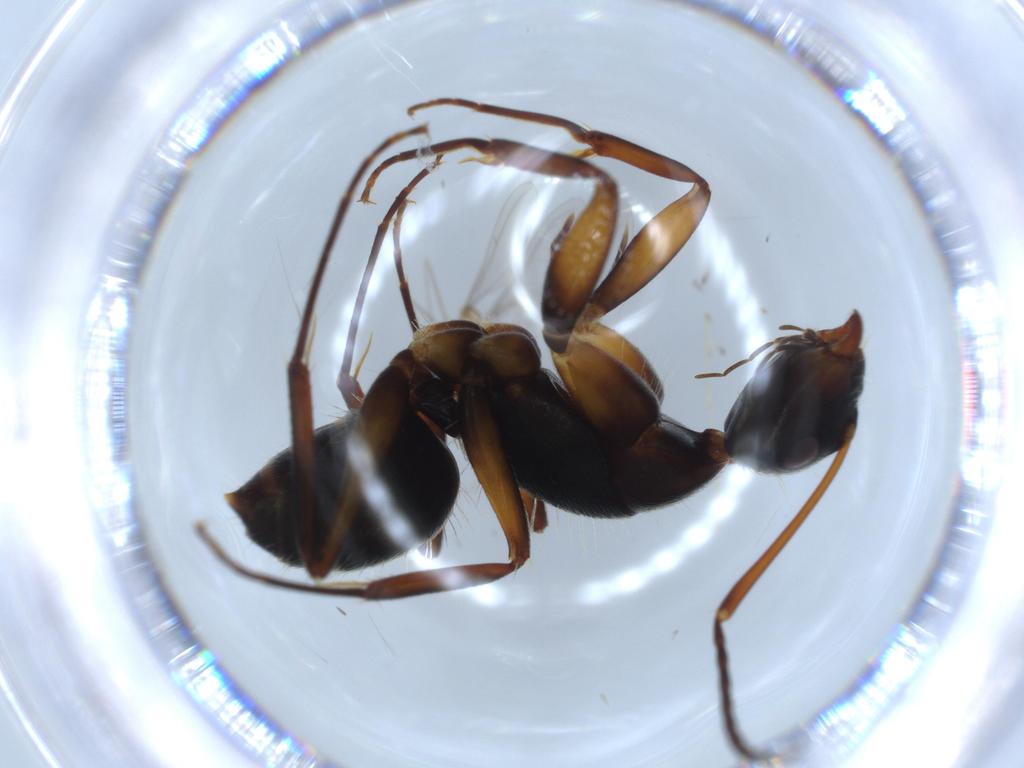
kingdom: Animalia
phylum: Arthropoda
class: Insecta
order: Hymenoptera
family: Formicidae
